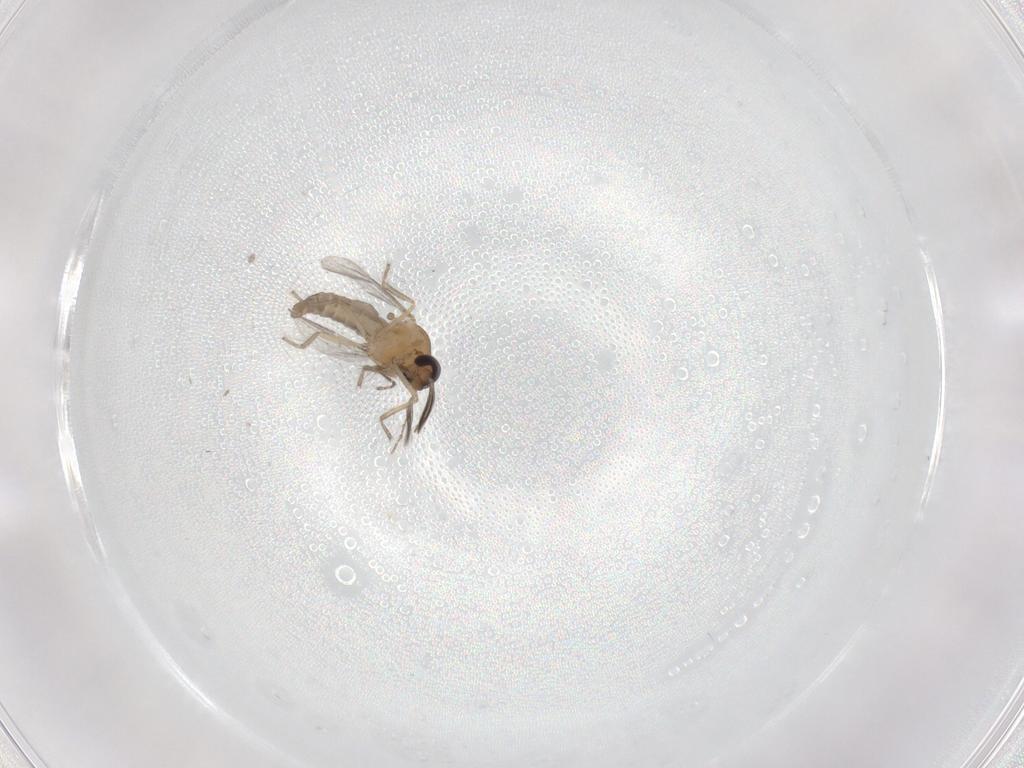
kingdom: Animalia
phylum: Arthropoda
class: Insecta
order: Diptera
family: Ceratopogonidae
